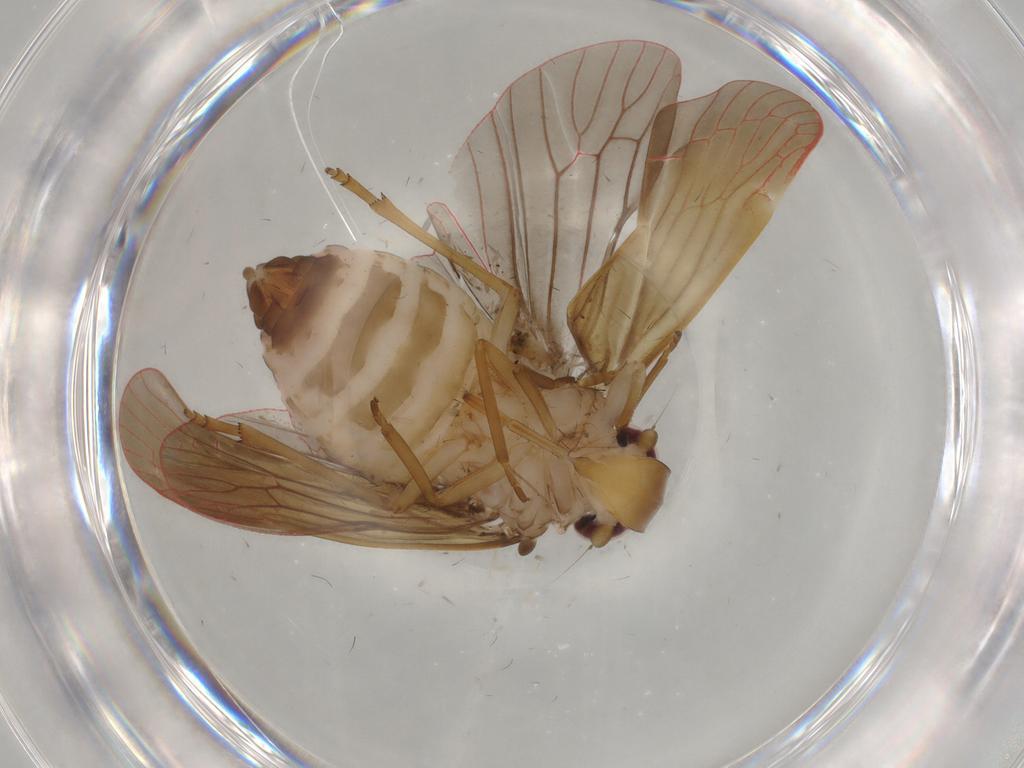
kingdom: Animalia
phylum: Arthropoda
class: Insecta
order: Hemiptera
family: Achilidae
